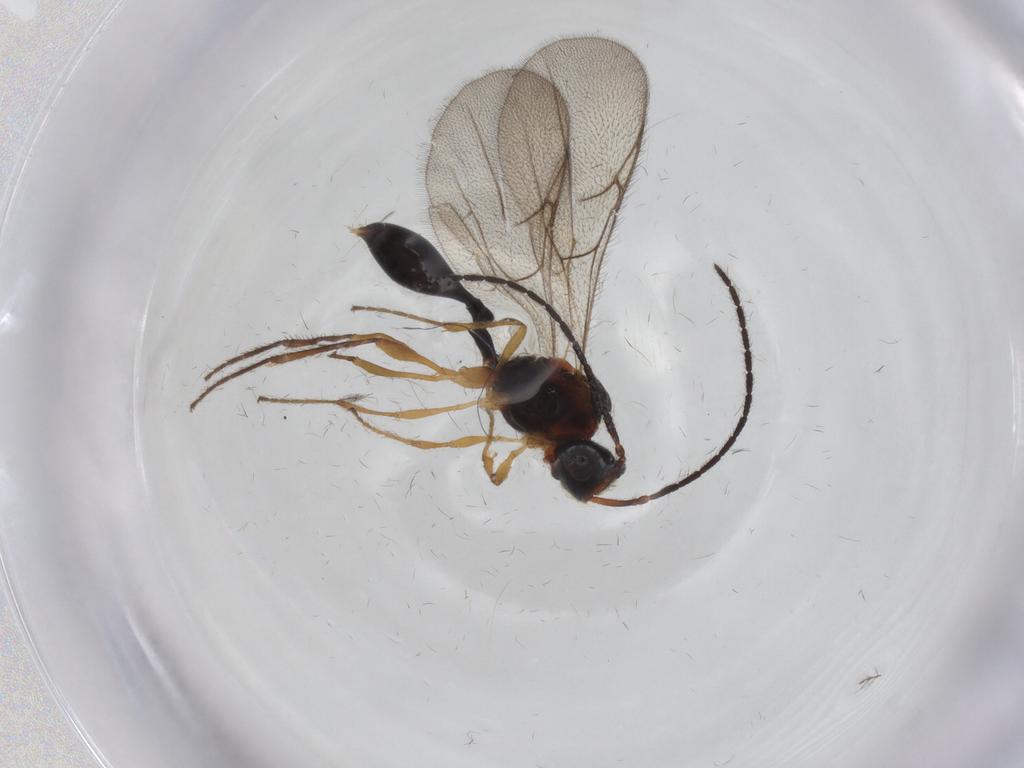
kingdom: Animalia
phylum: Arthropoda
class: Insecta
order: Hymenoptera
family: Diapriidae
